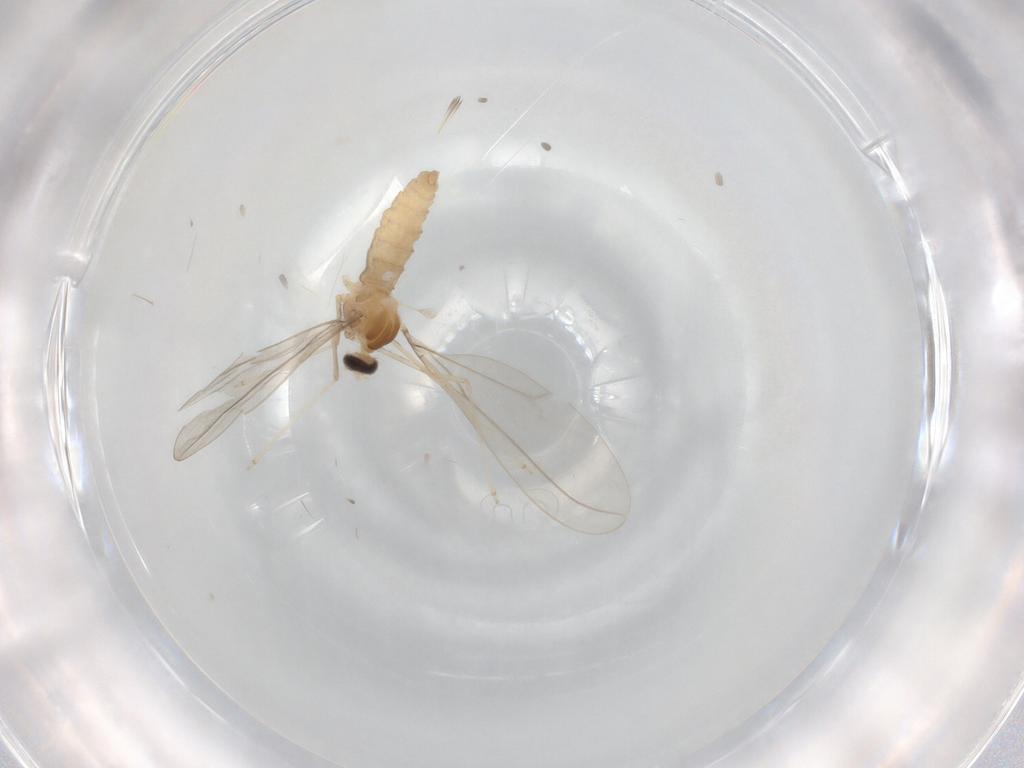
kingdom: Animalia
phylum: Arthropoda
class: Insecta
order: Diptera
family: Cecidomyiidae
